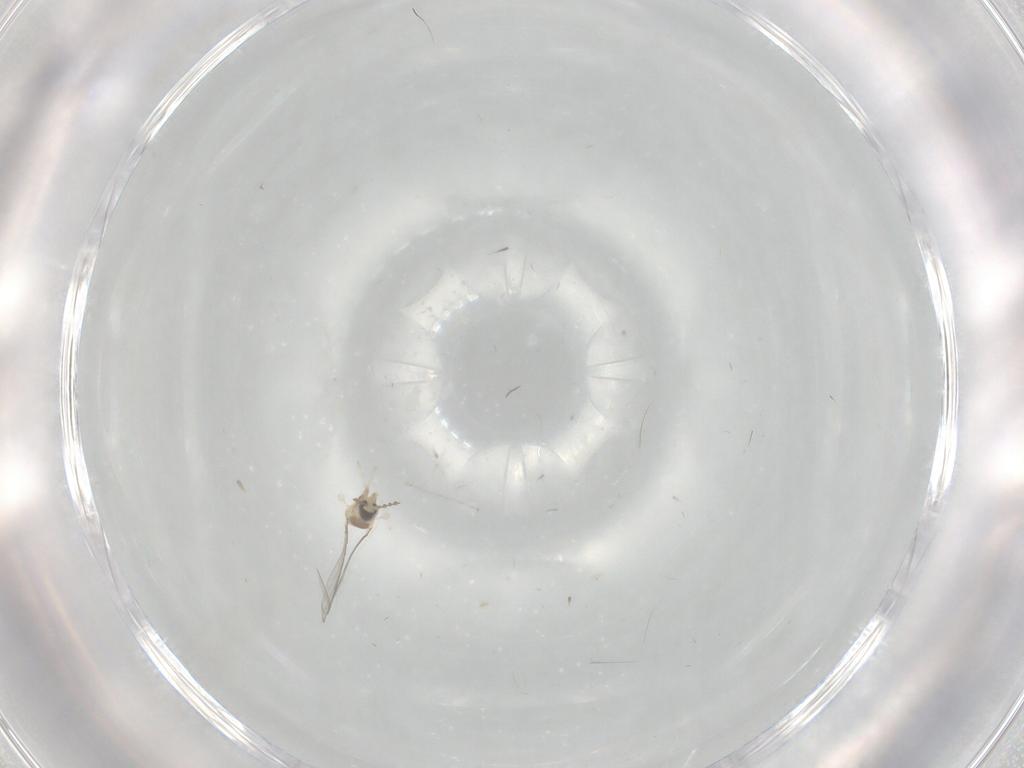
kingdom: Animalia
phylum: Arthropoda
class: Insecta
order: Diptera
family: Cecidomyiidae
